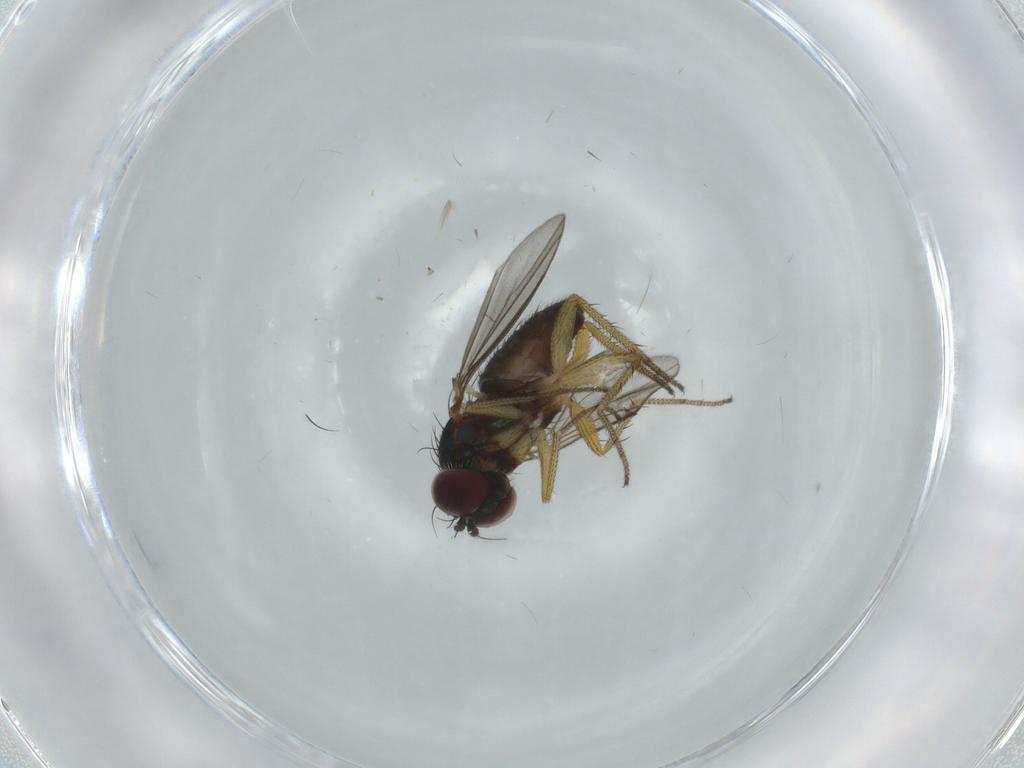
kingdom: Animalia
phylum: Arthropoda
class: Insecta
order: Diptera
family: Dolichopodidae
